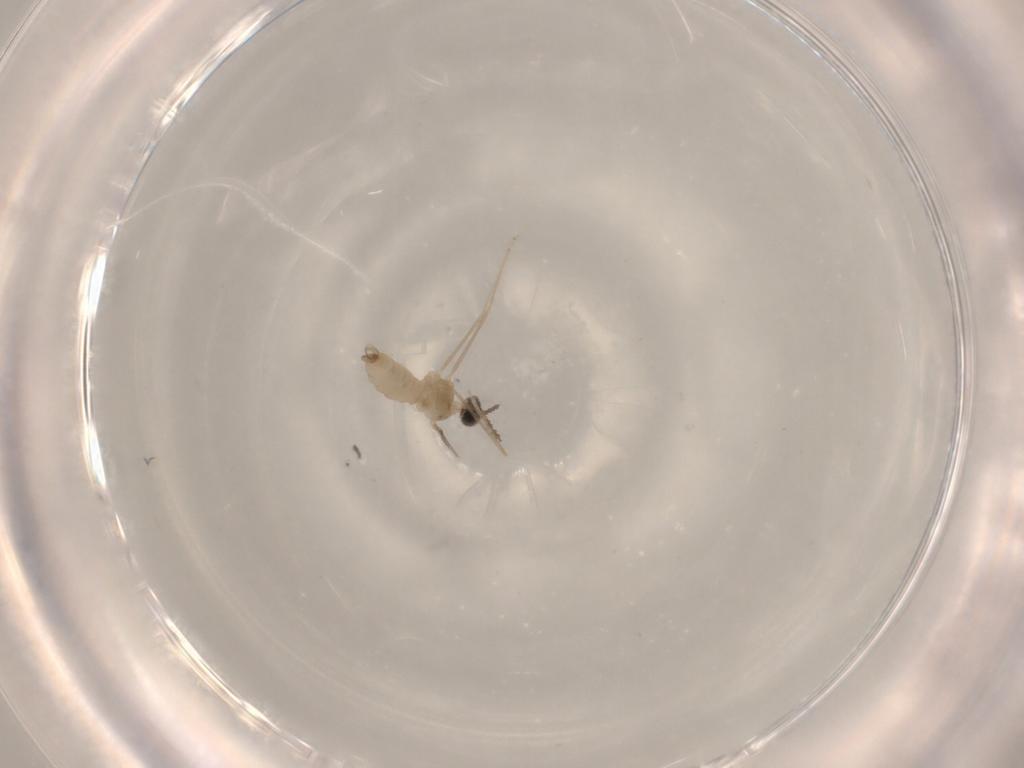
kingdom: Animalia
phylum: Arthropoda
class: Insecta
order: Diptera
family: Cecidomyiidae
